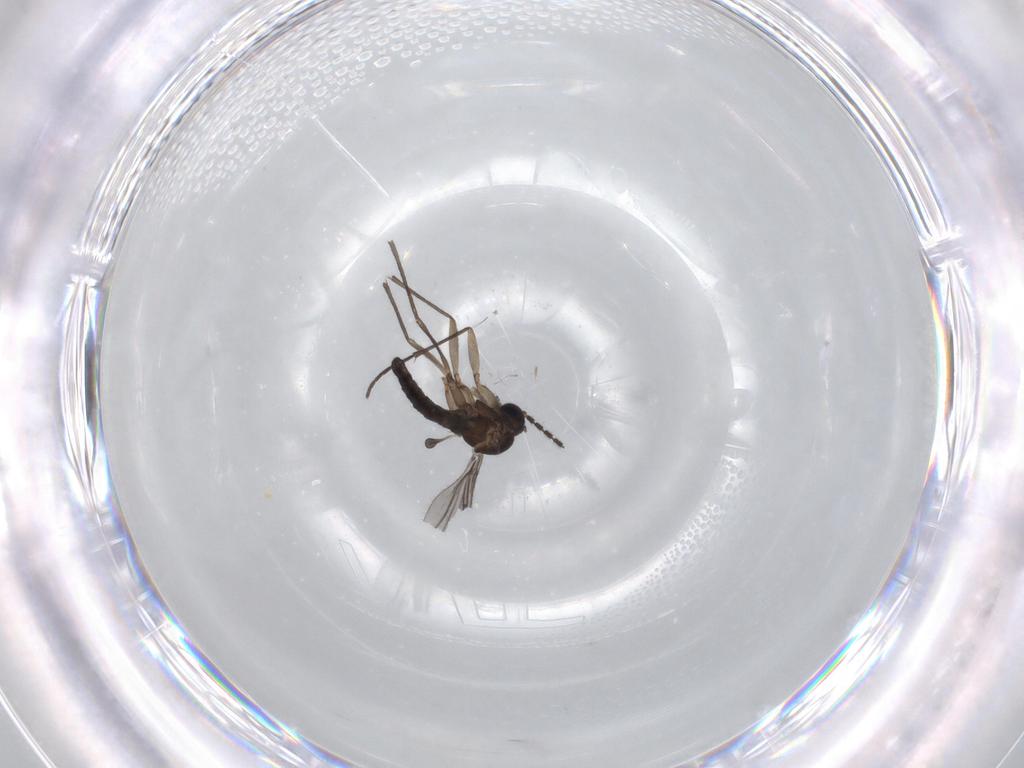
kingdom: Animalia
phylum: Arthropoda
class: Insecta
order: Diptera
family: Sciaridae
